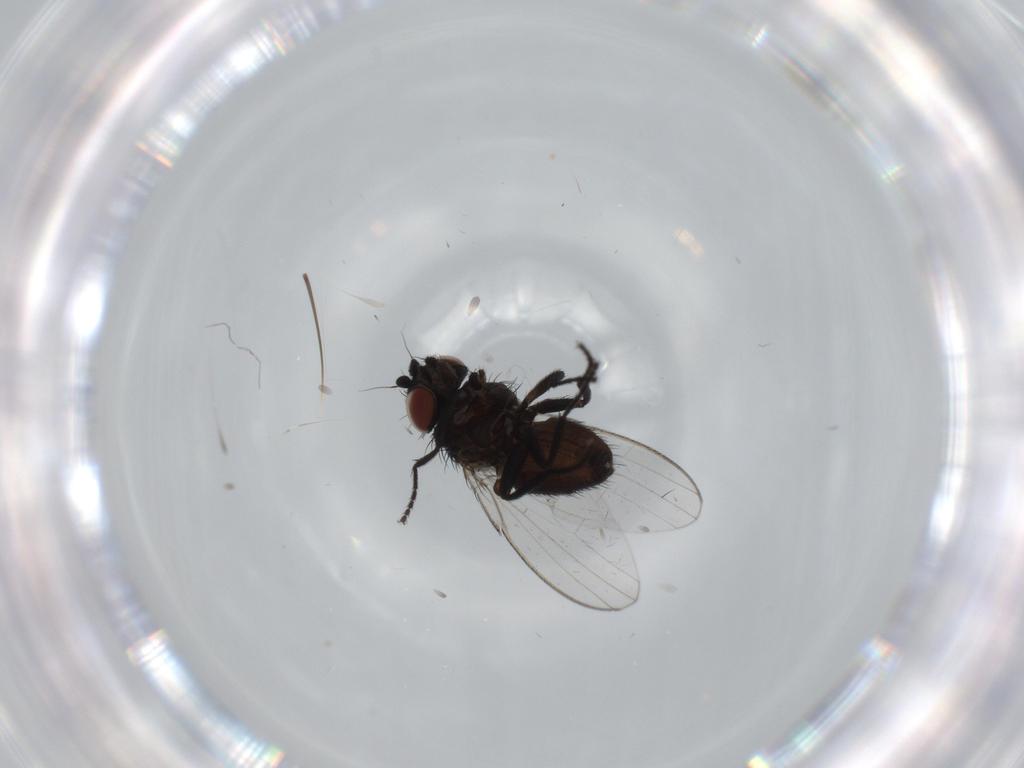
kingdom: Animalia
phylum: Arthropoda
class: Insecta
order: Diptera
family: Milichiidae
